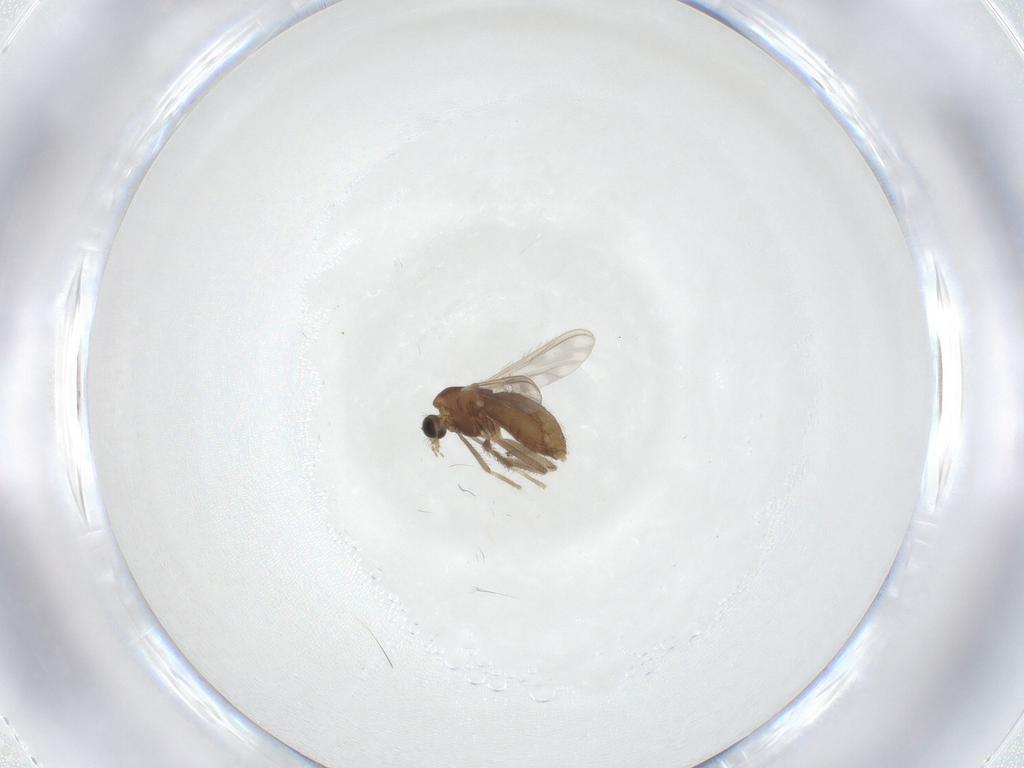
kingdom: Animalia
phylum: Arthropoda
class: Insecta
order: Diptera
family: Chironomidae
